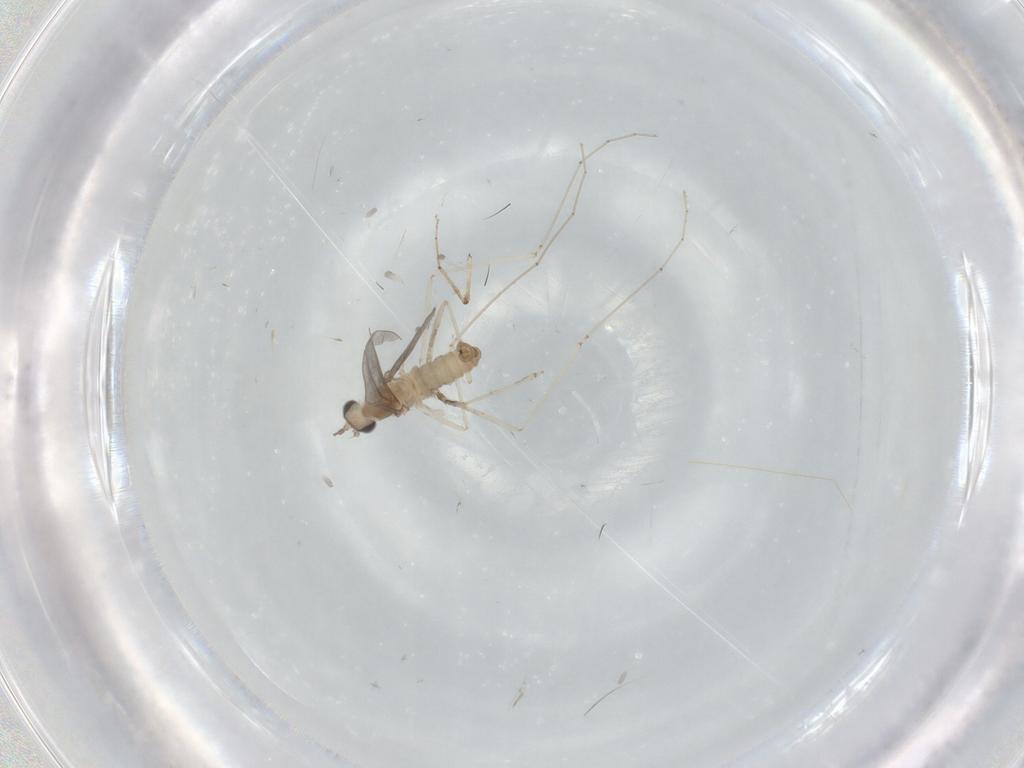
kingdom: Animalia
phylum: Arthropoda
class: Insecta
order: Diptera
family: Cecidomyiidae
